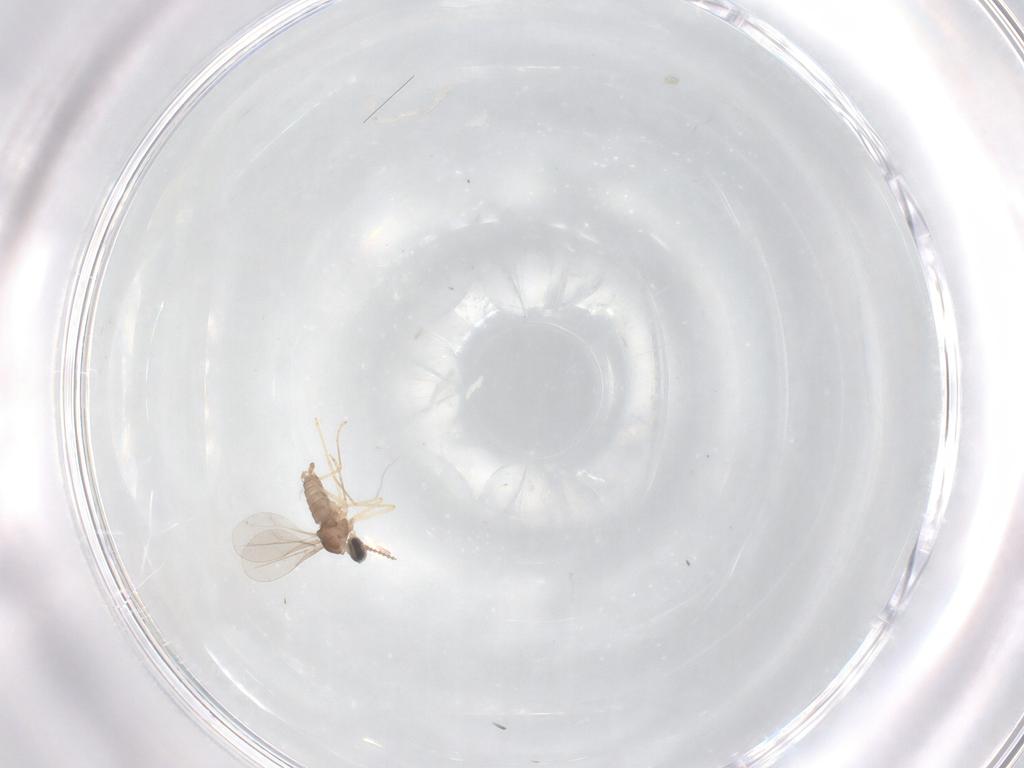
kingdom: Animalia
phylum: Arthropoda
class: Insecta
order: Diptera
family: Cecidomyiidae
